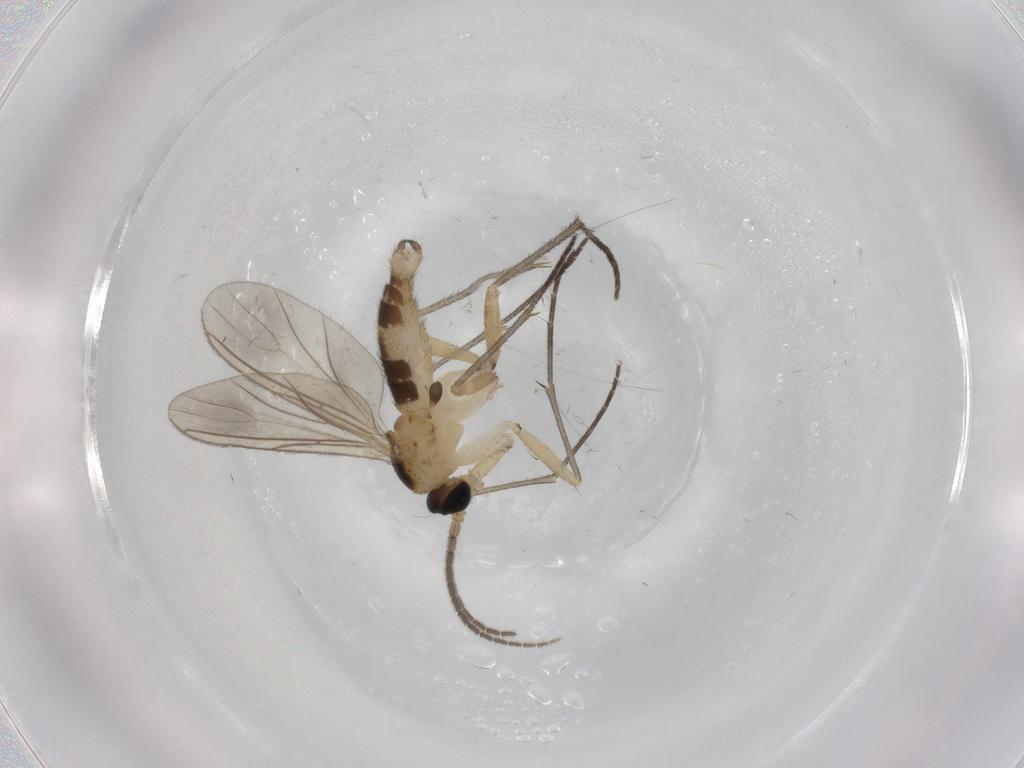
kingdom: Animalia
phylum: Arthropoda
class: Insecta
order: Diptera
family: Sciaridae
